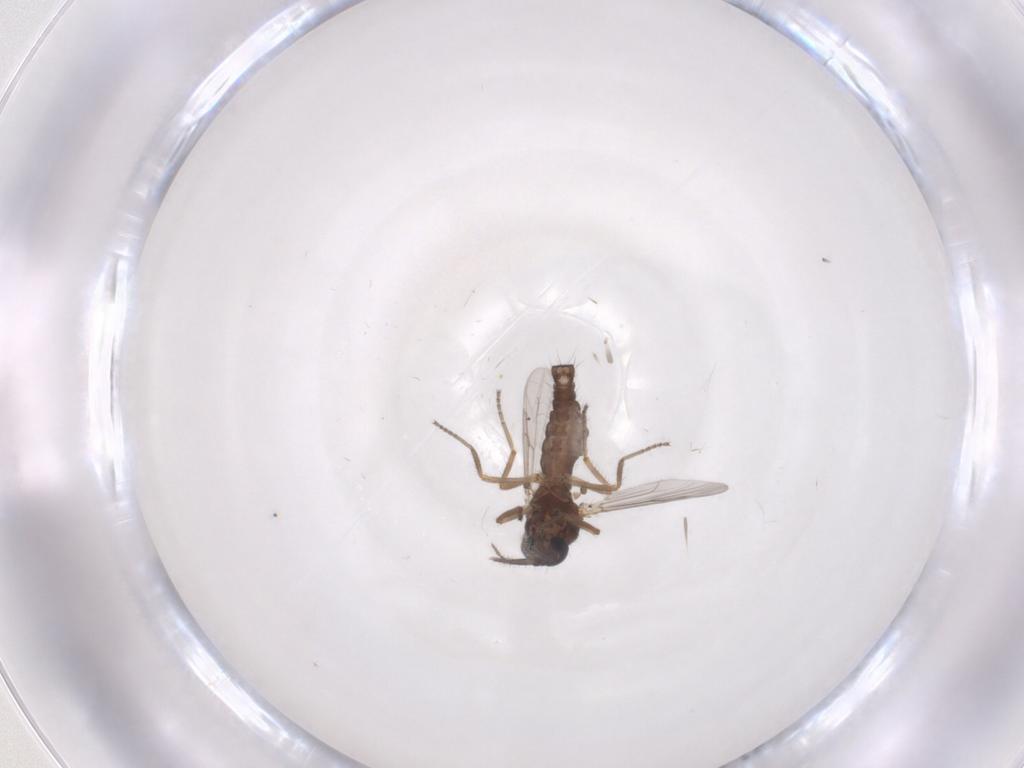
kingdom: Animalia
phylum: Arthropoda
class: Insecta
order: Diptera
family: Ceratopogonidae
